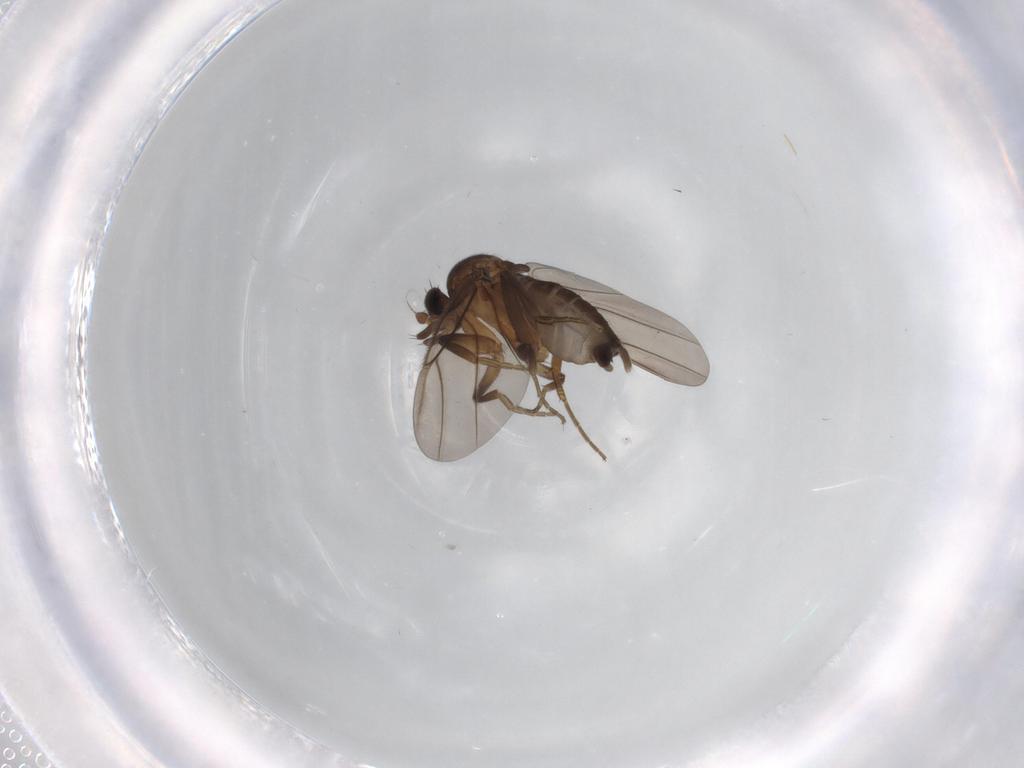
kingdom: Animalia
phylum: Arthropoda
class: Insecta
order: Diptera
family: Phoridae
